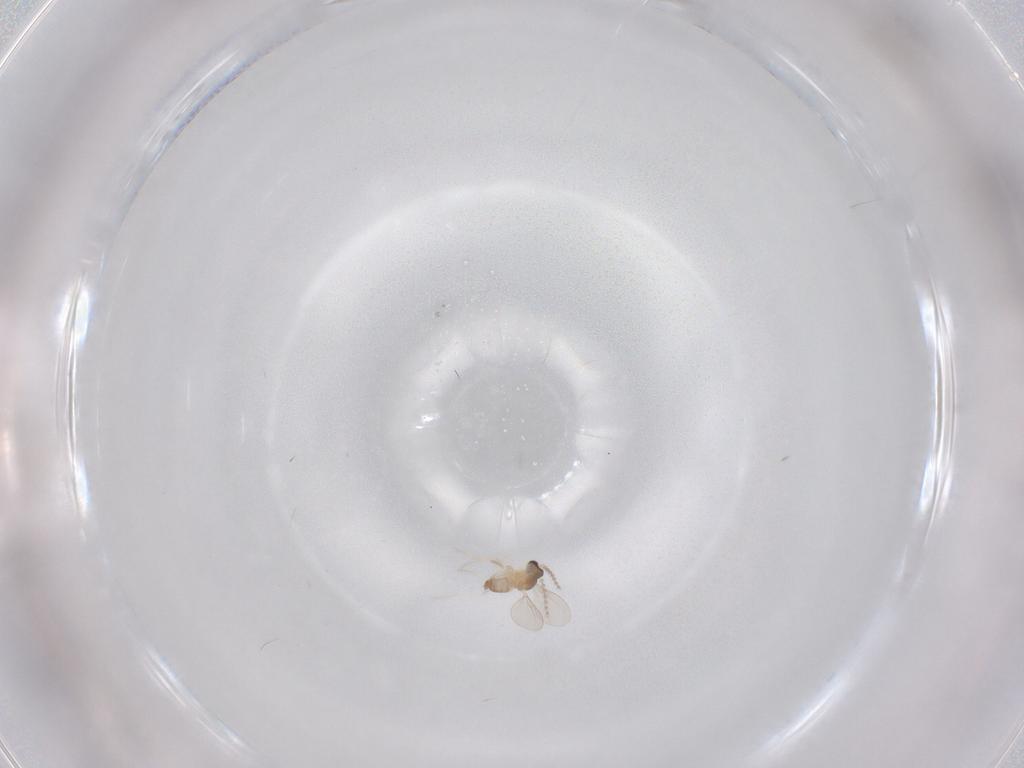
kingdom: Animalia
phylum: Arthropoda
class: Insecta
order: Diptera
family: Cecidomyiidae
